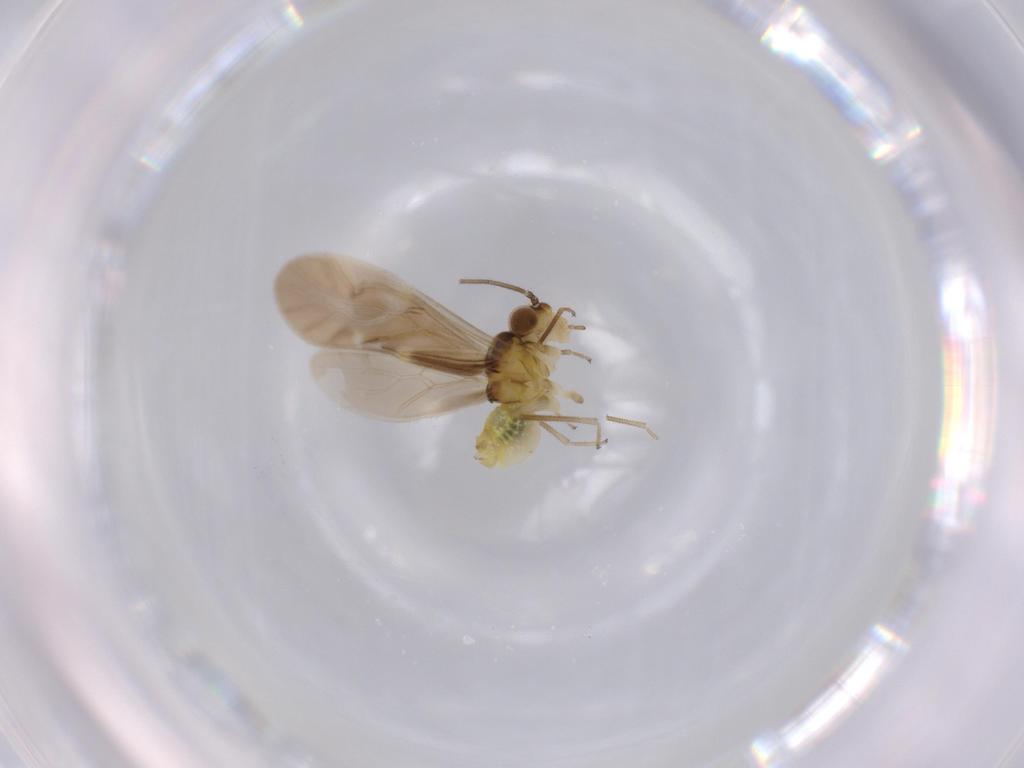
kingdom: Animalia
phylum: Arthropoda
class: Insecta
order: Psocodea
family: Caeciliusidae
